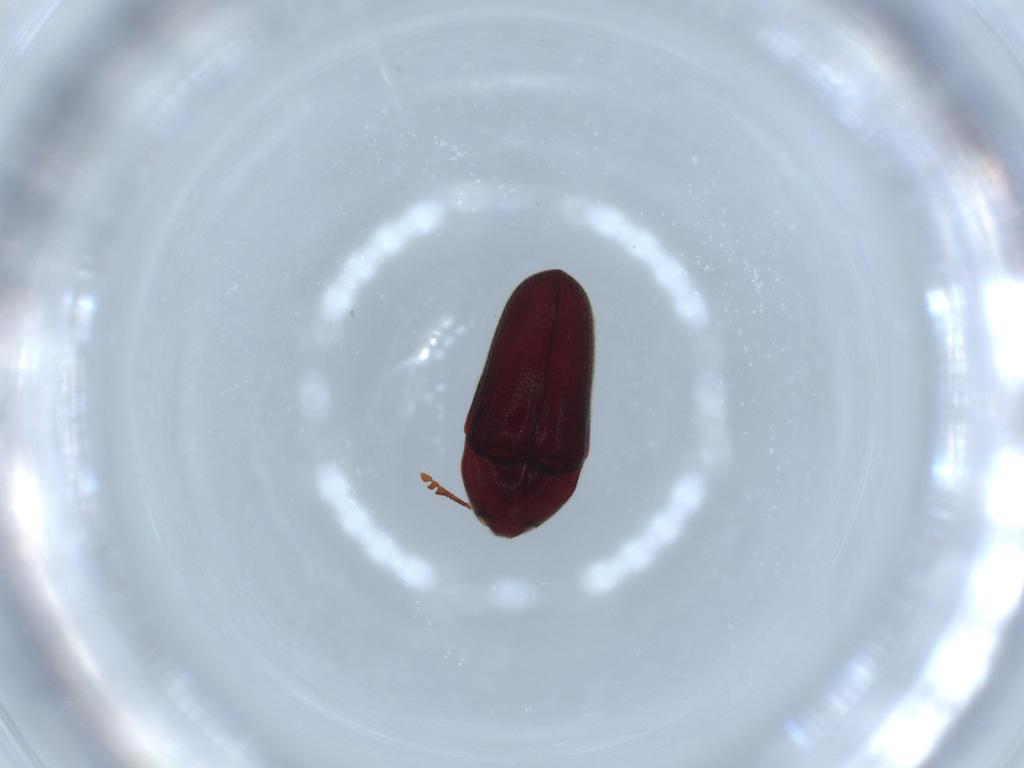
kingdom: Animalia
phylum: Arthropoda
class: Insecta
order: Coleoptera
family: Throscidae
